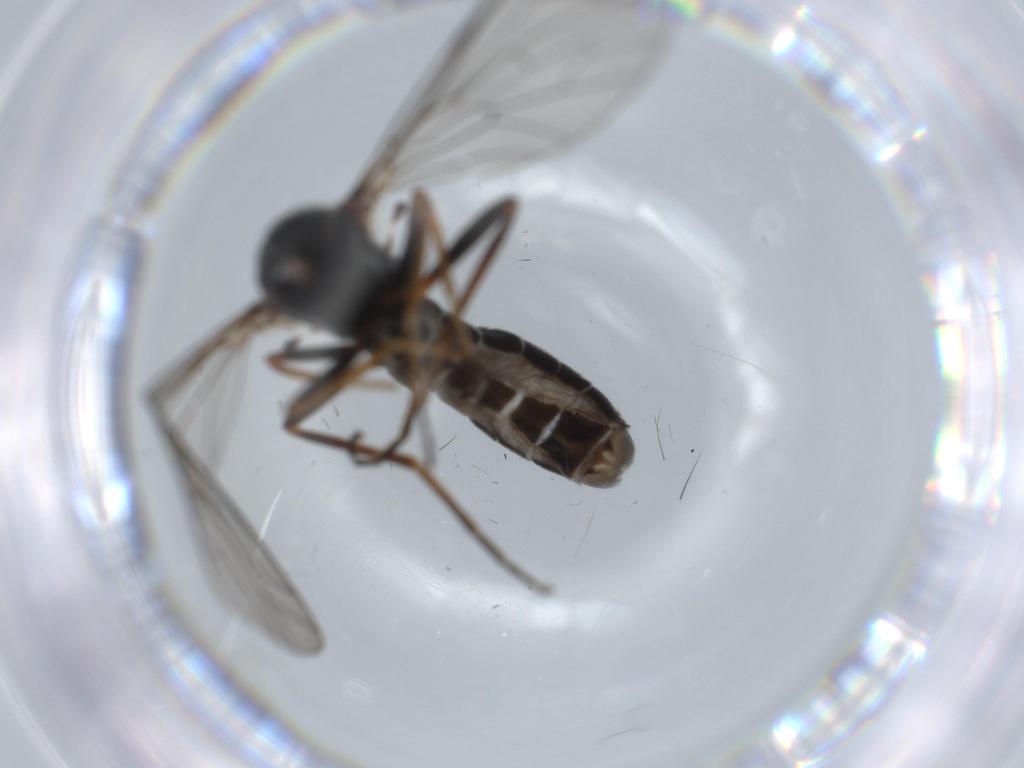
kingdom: Animalia
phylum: Arthropoda
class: Insecta
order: Diptera
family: Bombyliidae
